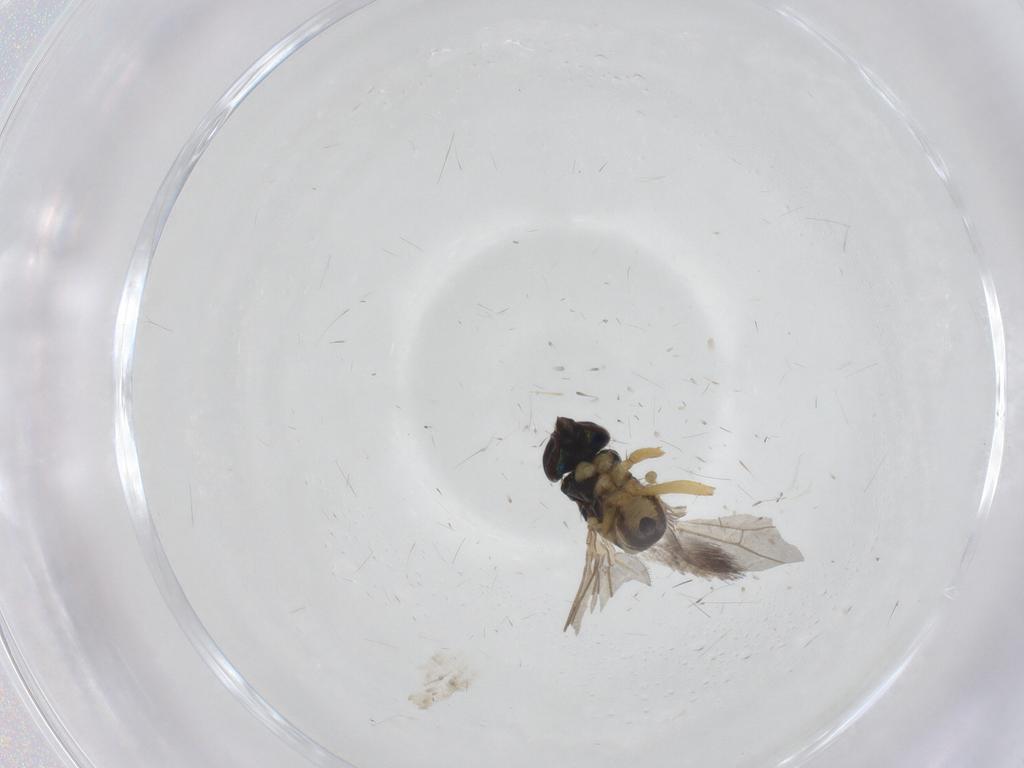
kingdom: Animalia
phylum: Arthropoda
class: Insecta
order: Diptera
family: Dolichopodidae
